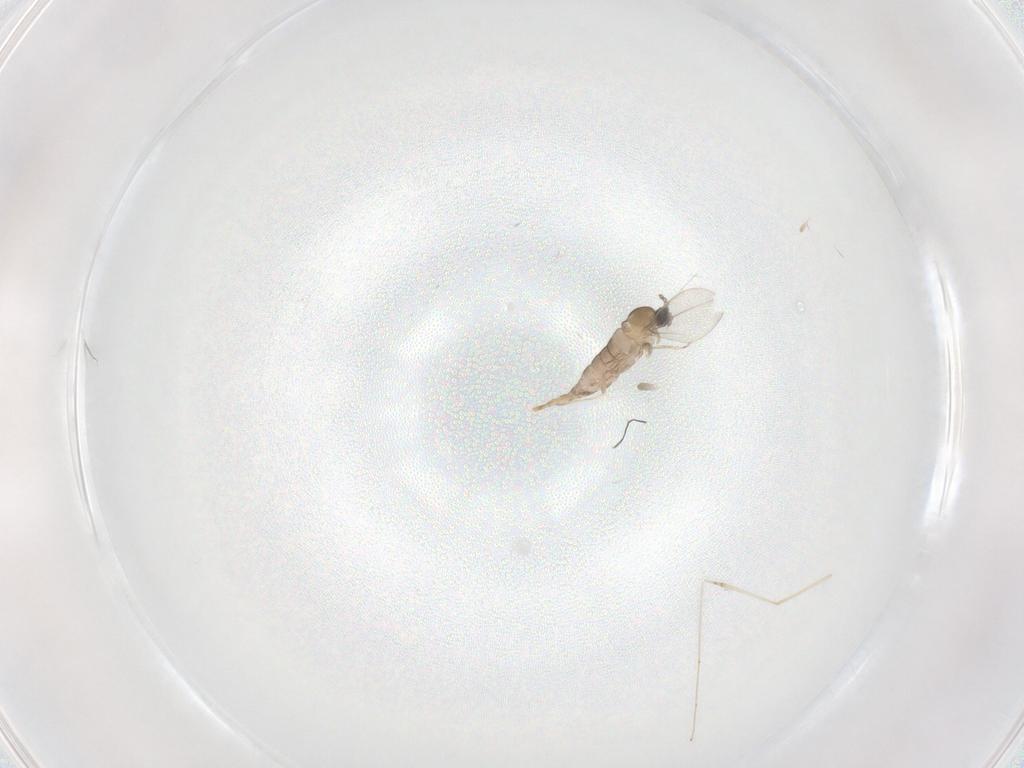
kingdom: Animalia
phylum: Arthropoda
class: Insecta
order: Diptera
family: Cecidomyiidae
